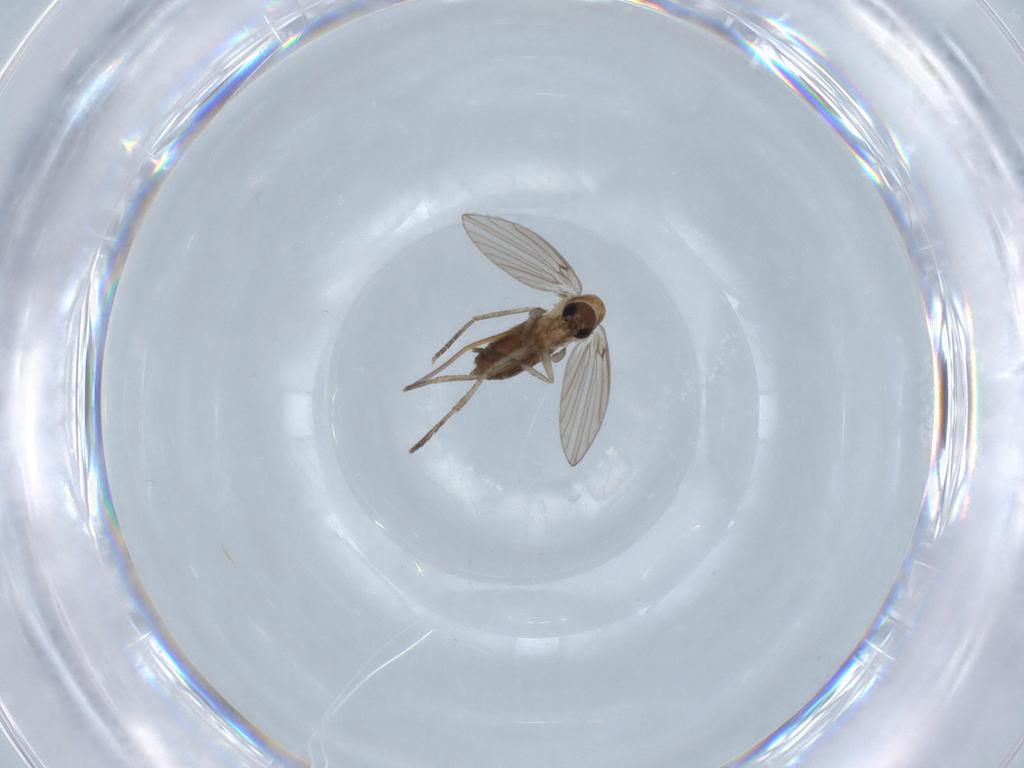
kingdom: Animalia
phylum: Arthropoda
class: Insecta
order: Diptera
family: Psychodidae
